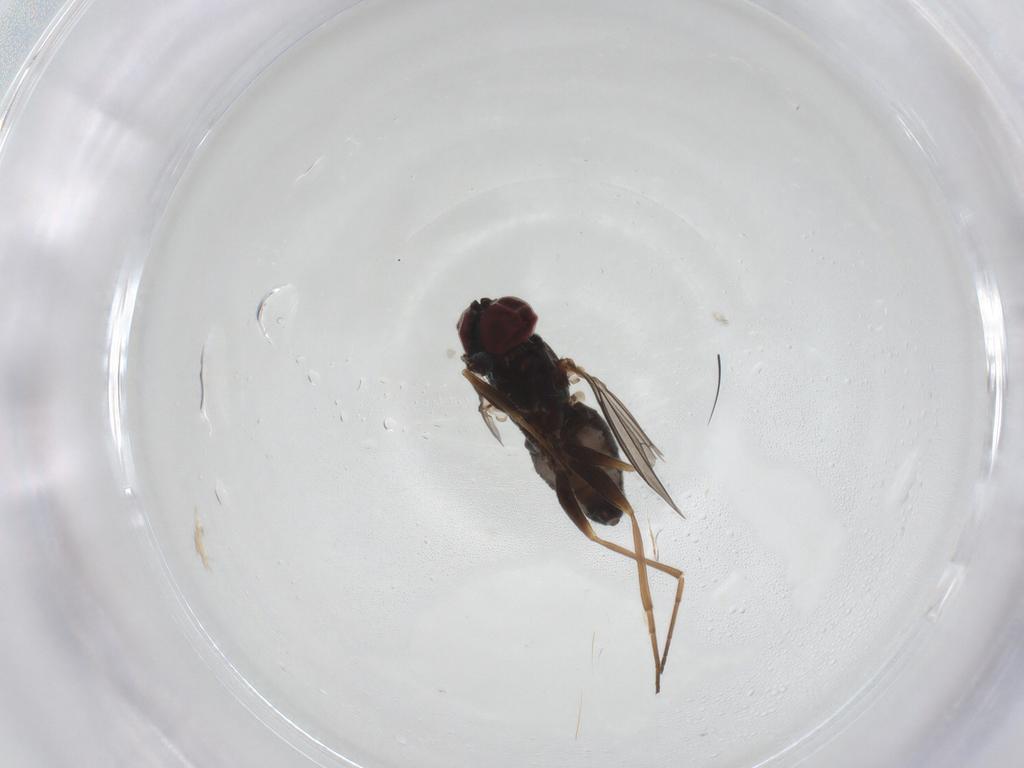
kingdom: Animalia
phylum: Arthropoda
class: Insecta
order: Diptera
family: Dolichopodidae
